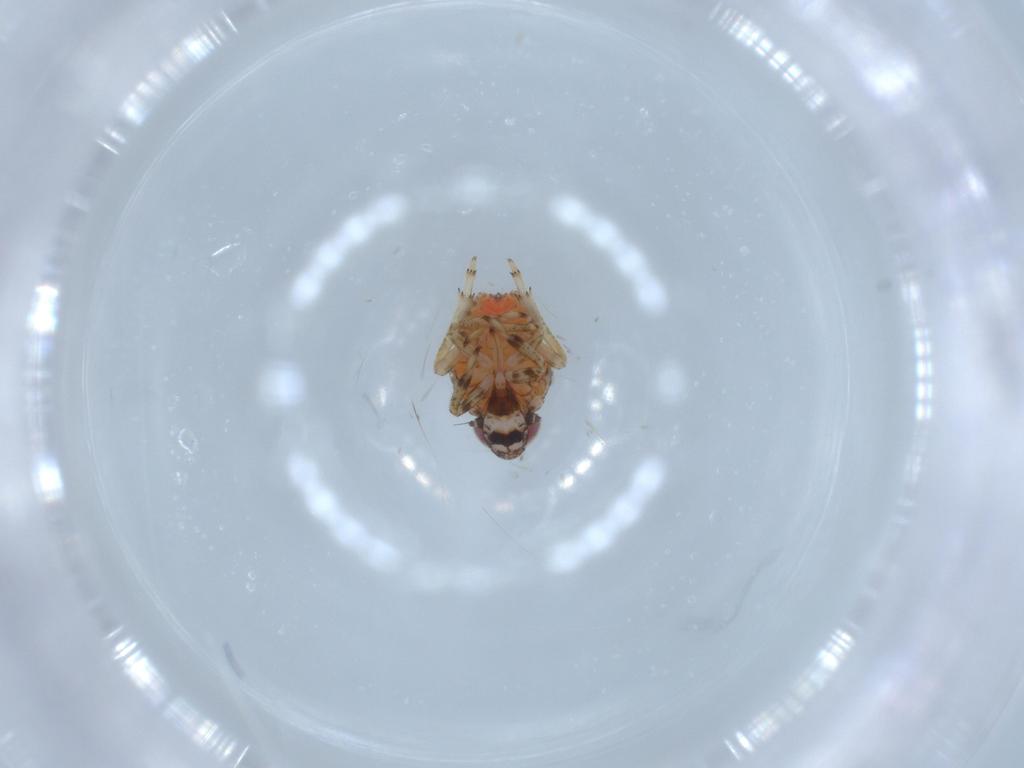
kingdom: Animalia
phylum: Arthropoda
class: Insecta
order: Hemiptera
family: Issidae
